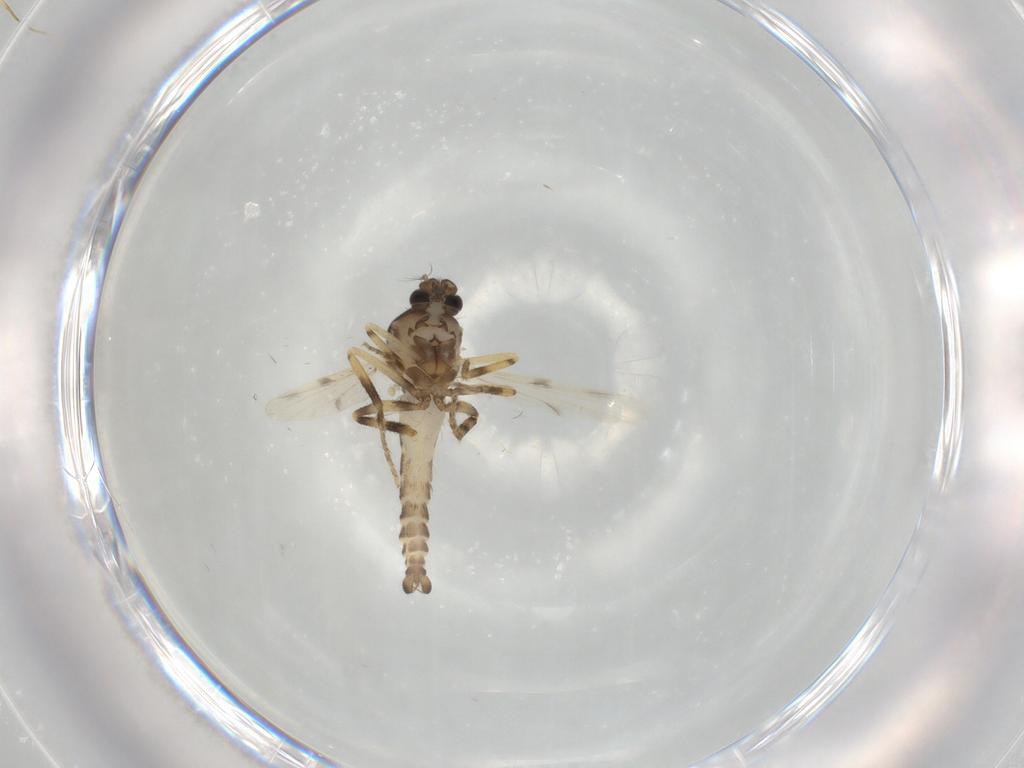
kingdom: Animalia
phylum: Arthropoda
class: Insecta
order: Diptera
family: Ceratopogonidae
